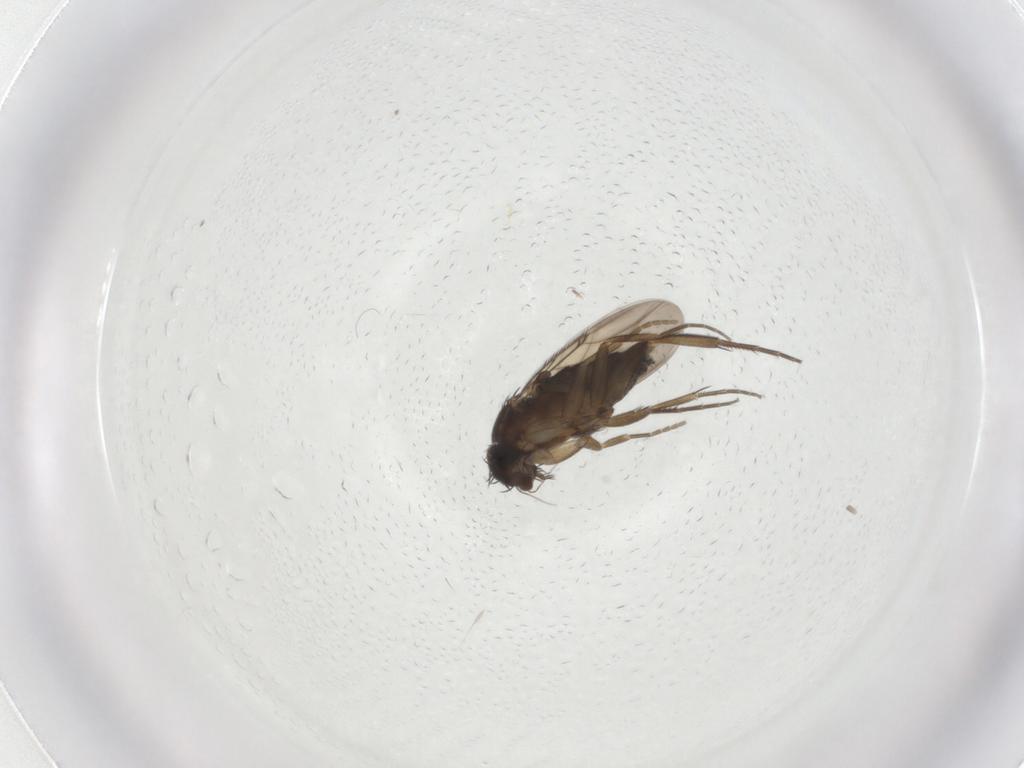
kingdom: Animalia
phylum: Arthropoda
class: Insecta
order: Diptera
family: Phoridae
